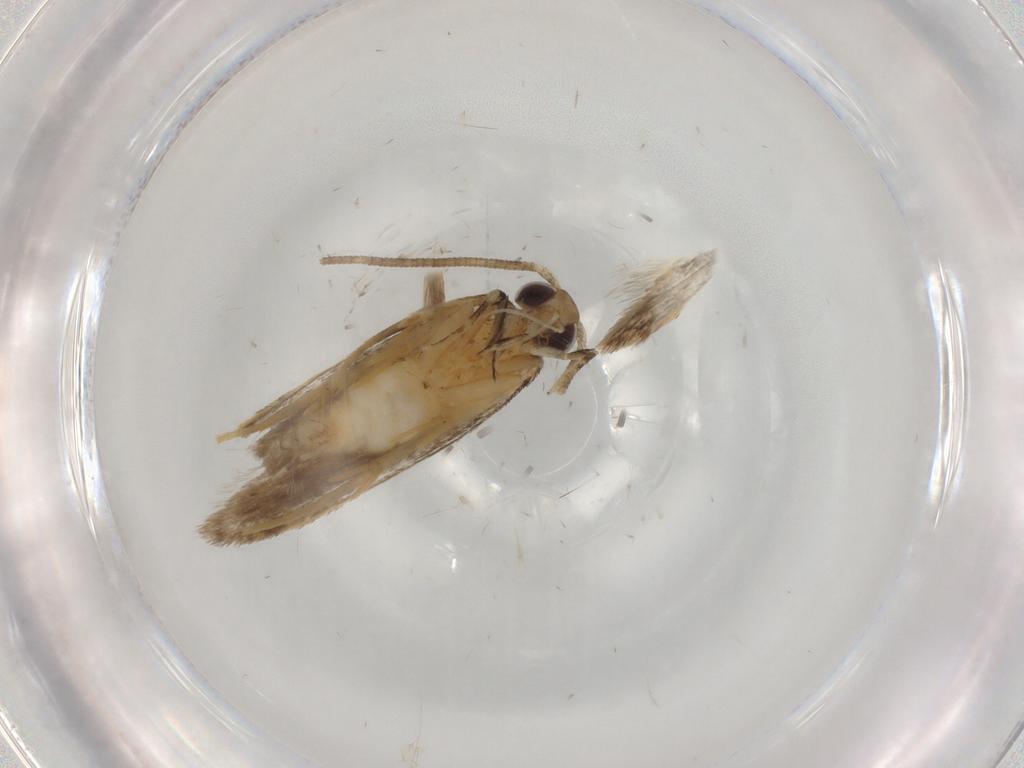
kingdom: Animalia
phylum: Arthropoda
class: Insecta
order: Lepidoptera
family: Autostichidae
